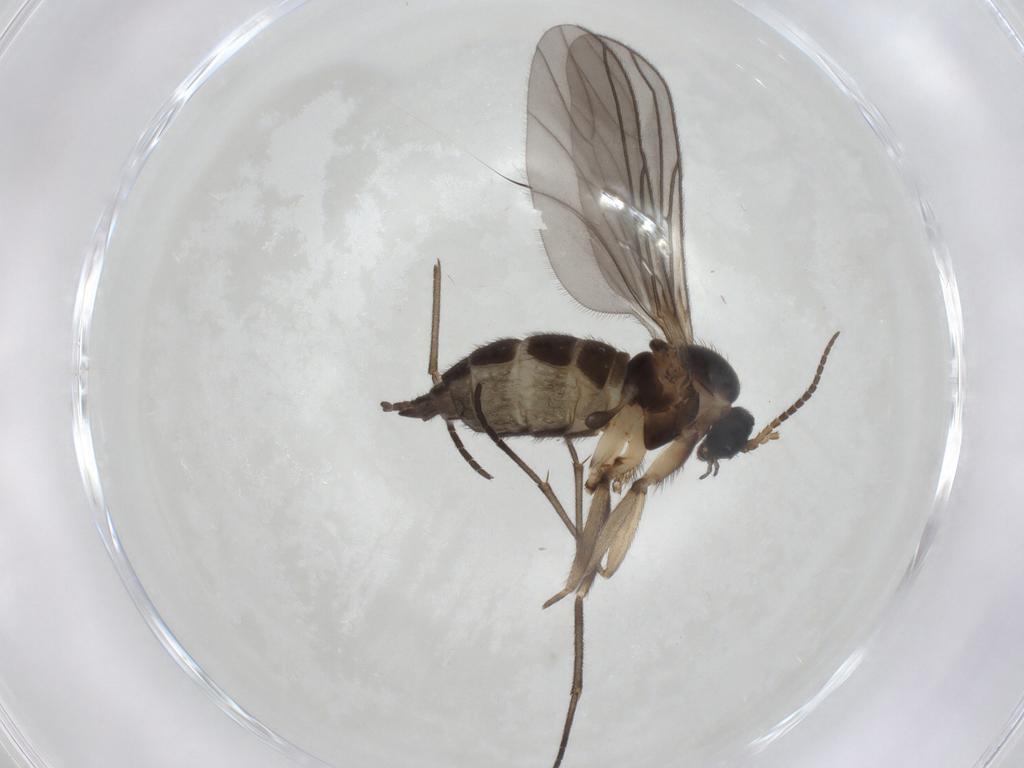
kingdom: Animalia
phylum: Arthropoda
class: Insecta
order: Diptera
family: Sciaridae
